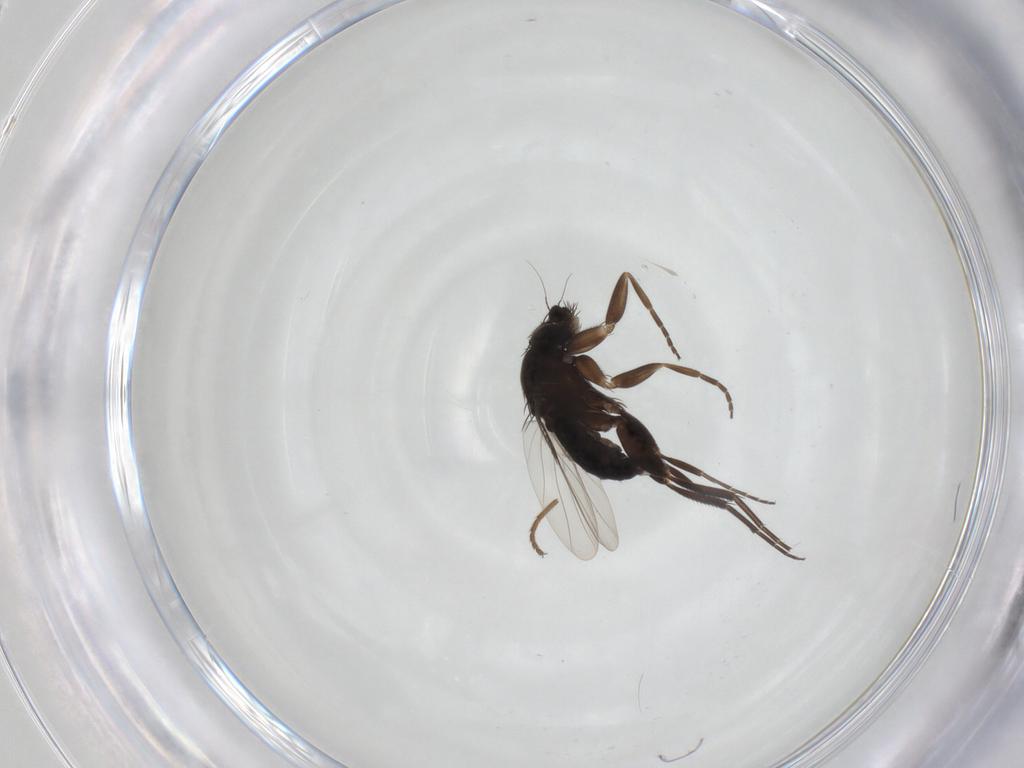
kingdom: Animalia
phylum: Arthropoda
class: Insecta
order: Diptera
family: Phoridae
